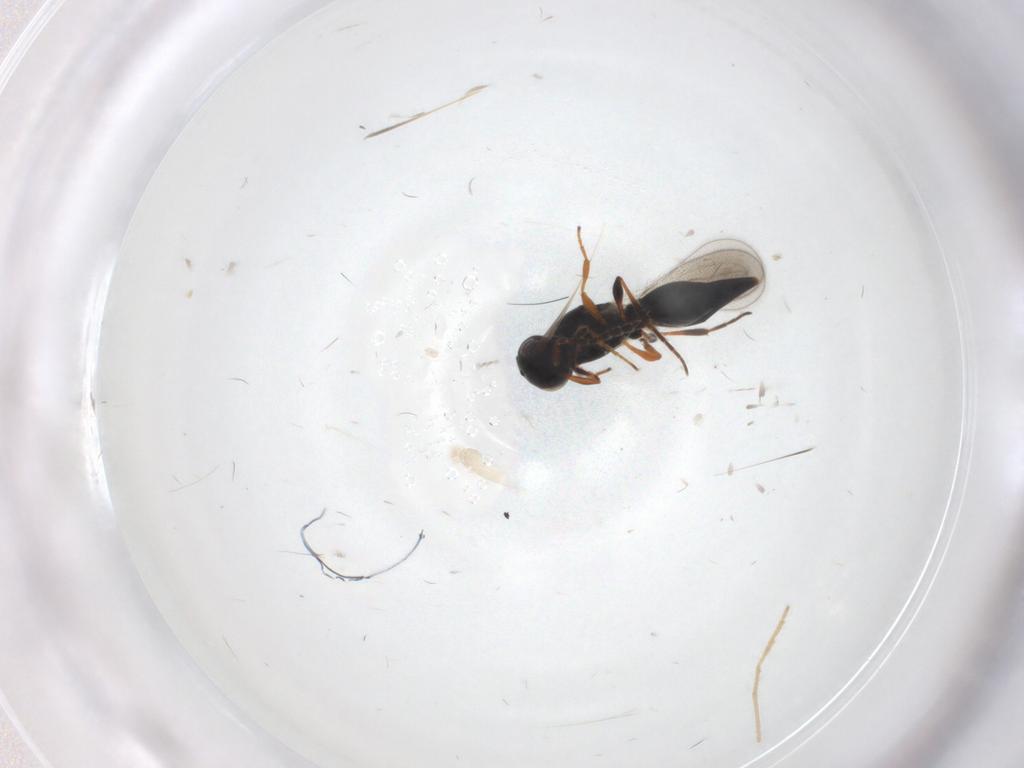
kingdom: Animalia
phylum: Arthropoda
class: Insecta
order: Hymenoptera
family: Platygastridae
